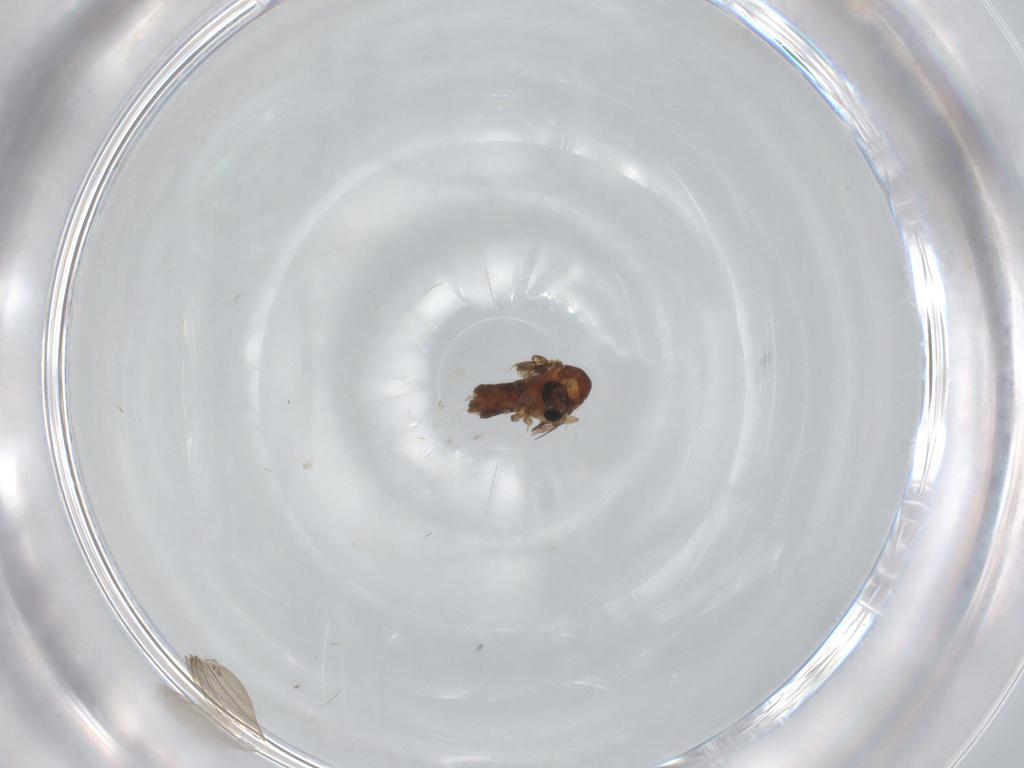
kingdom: Animalia
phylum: Arthropoda
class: Insecta
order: Diptera
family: Psychodidae
